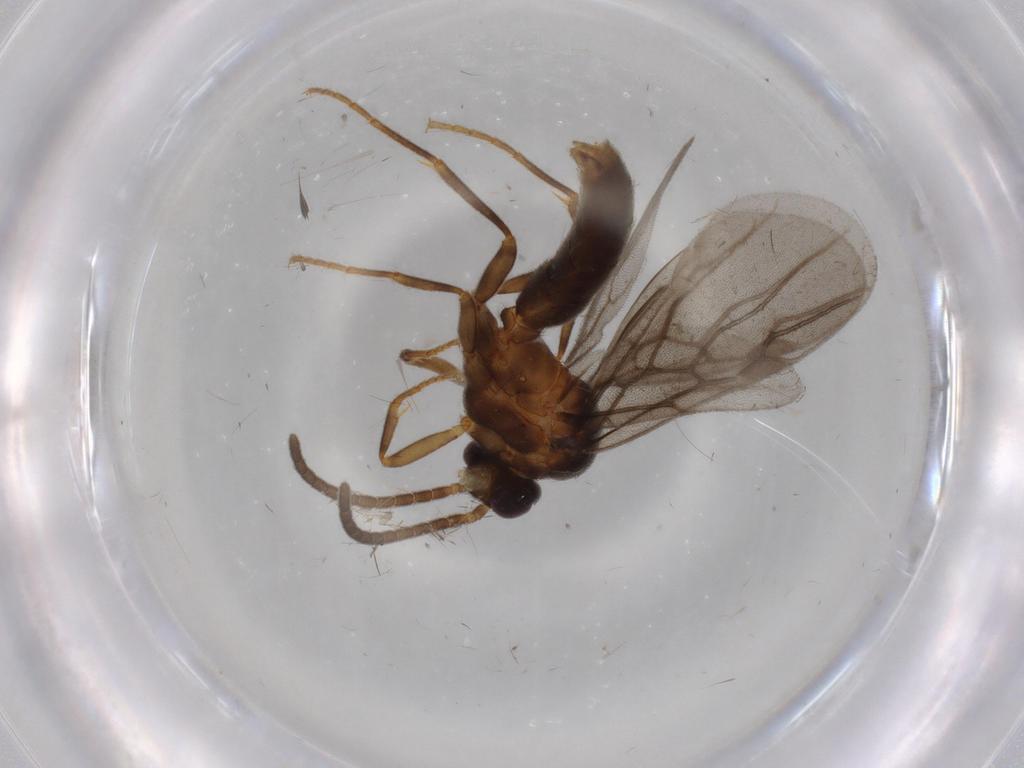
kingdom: Animalia
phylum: Arthropoda
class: Insecta
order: Hymenoptera
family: Formicidae
